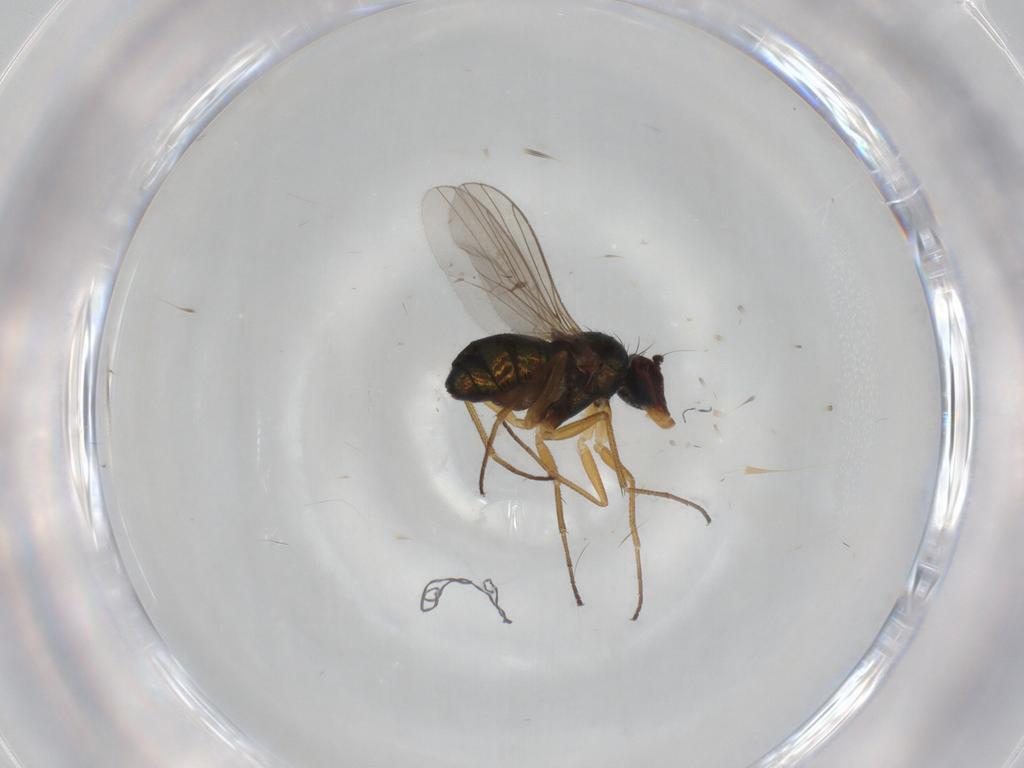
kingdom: Animalia
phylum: Arthropoda
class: Insecta
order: Diptera
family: Dolichopodidae
